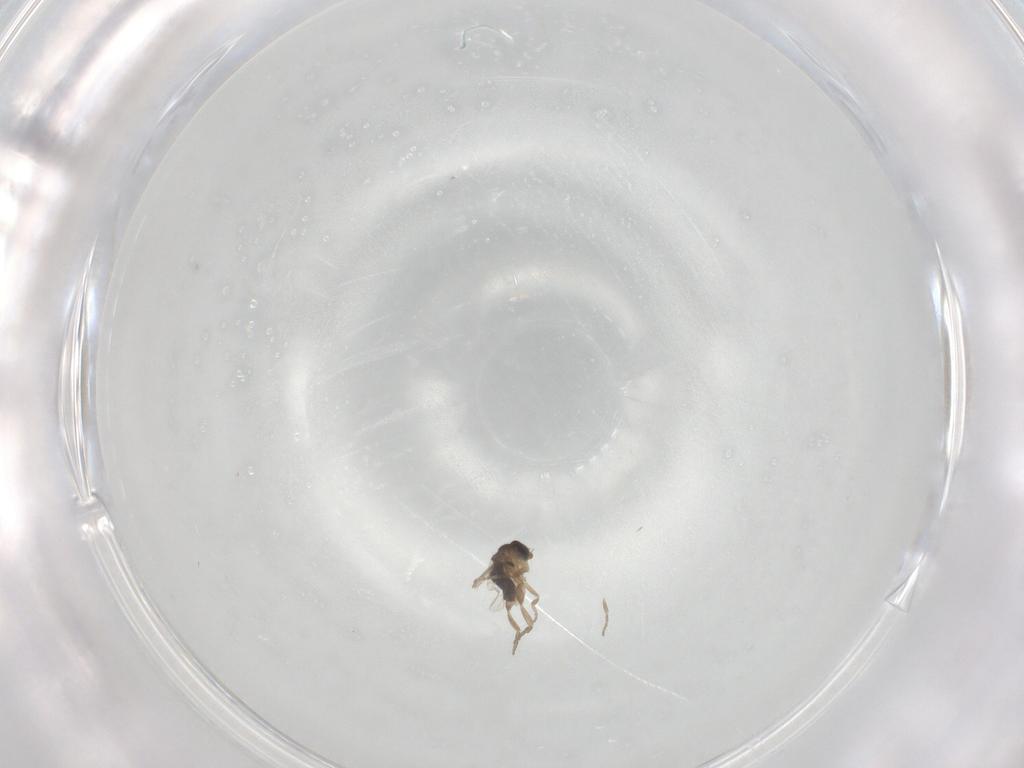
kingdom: Animalia
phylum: Arthropoda
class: Insecta
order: Diptera
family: Phoridae
